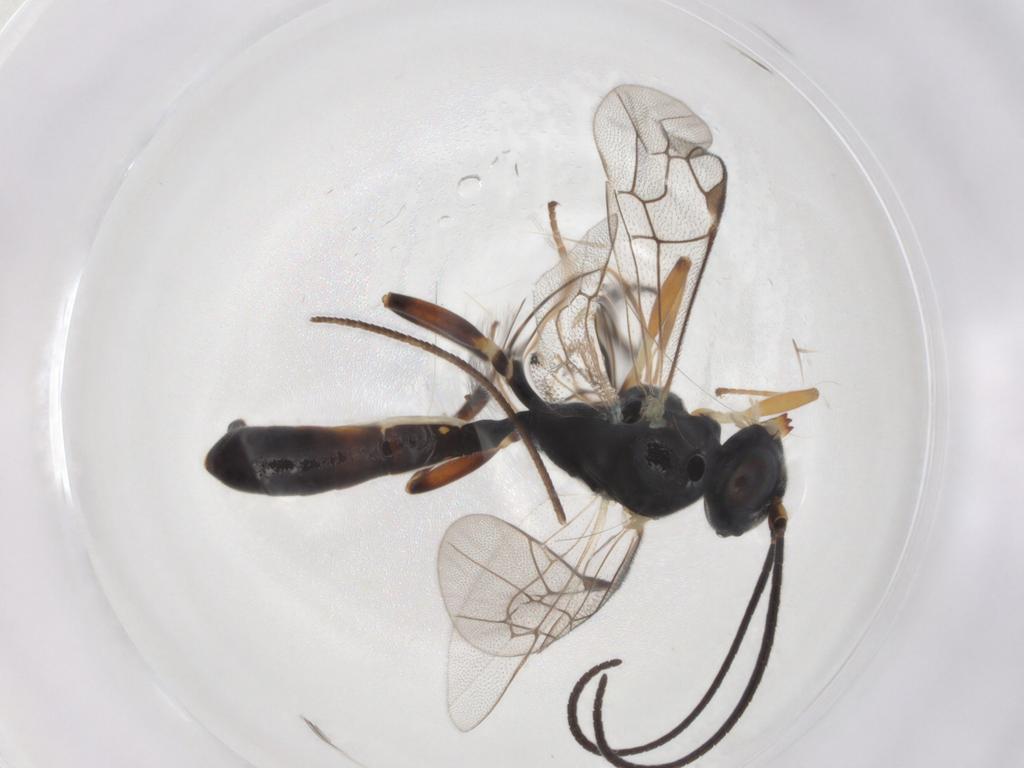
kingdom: Animalia
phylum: Arthropoda
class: Insecta
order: Hymenoptera
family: Ichneumonidae
